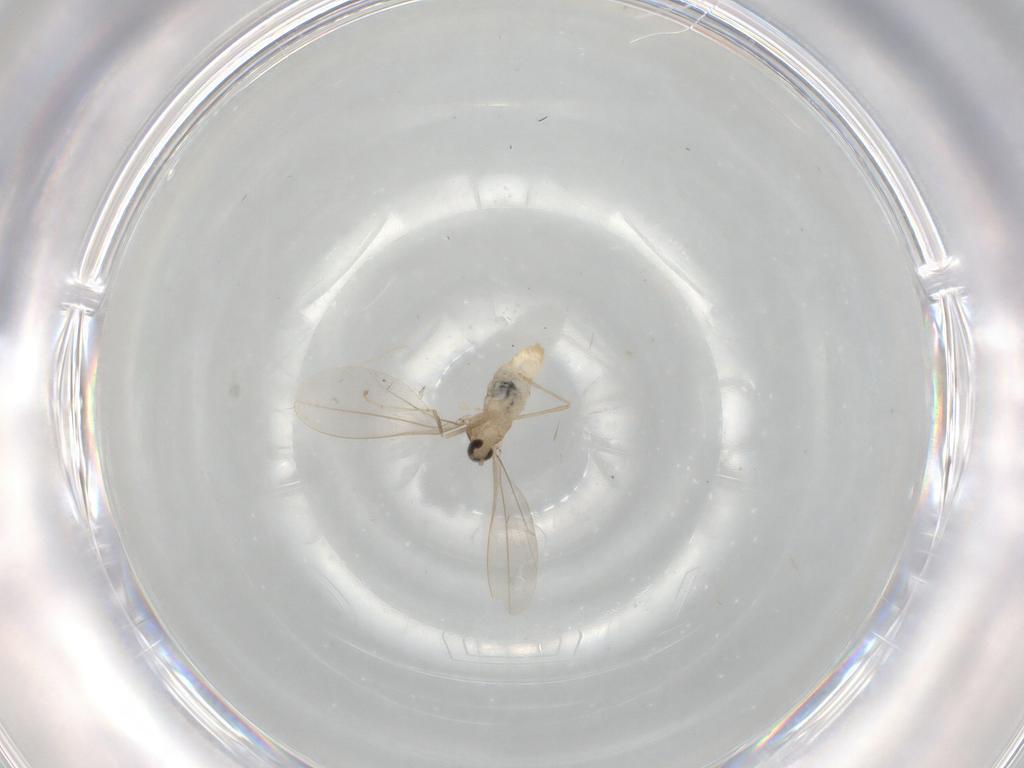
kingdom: Animalia
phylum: Arthropoda
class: Insecta
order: Diptera
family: Cecidomyiidae
